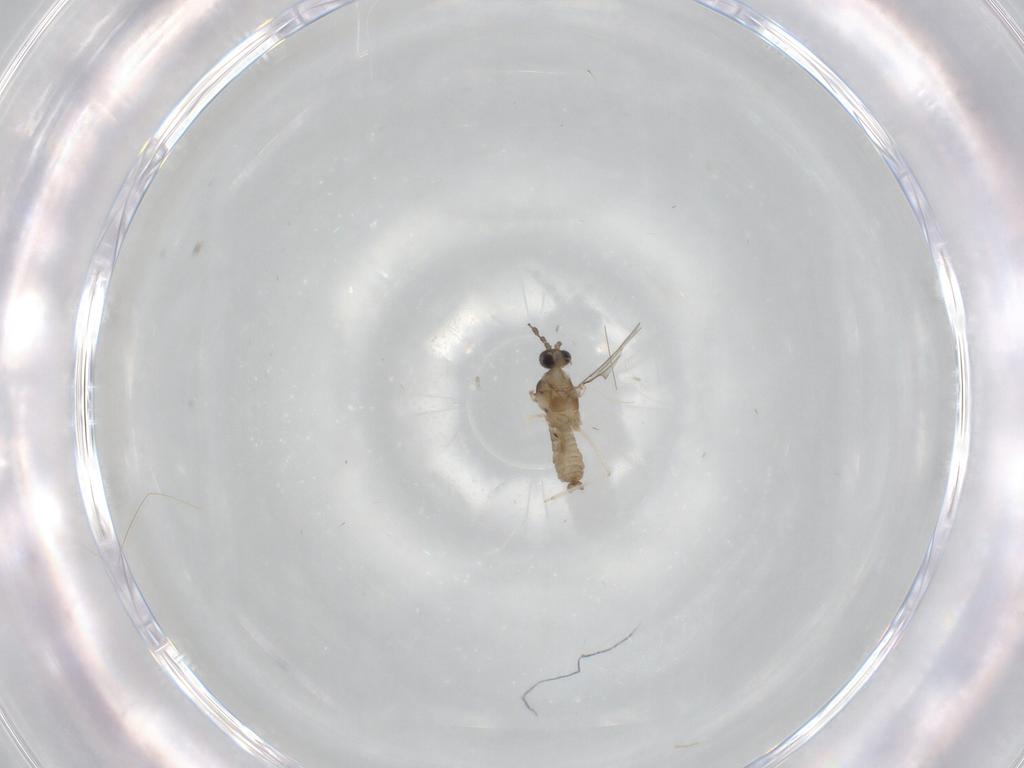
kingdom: Animalia
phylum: Arthropoda
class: Insecta
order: Diptera
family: Cecidomyiidae
